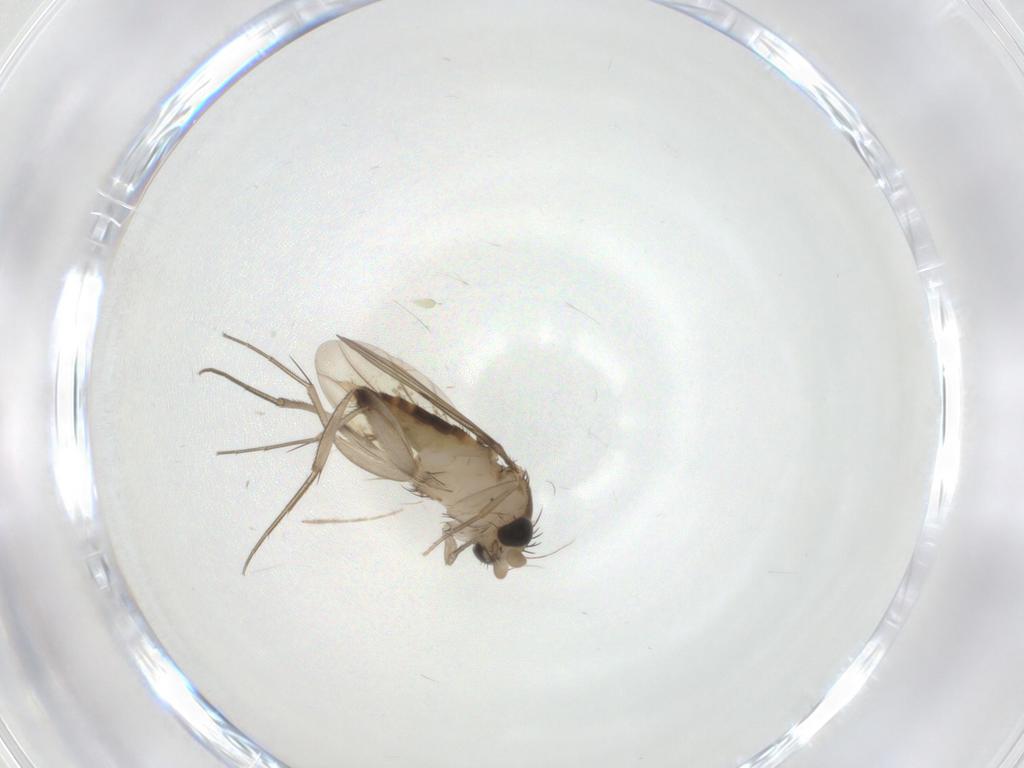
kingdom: Animalia
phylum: Arthropoda
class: Insecta
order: Diptera
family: Chironomidae
